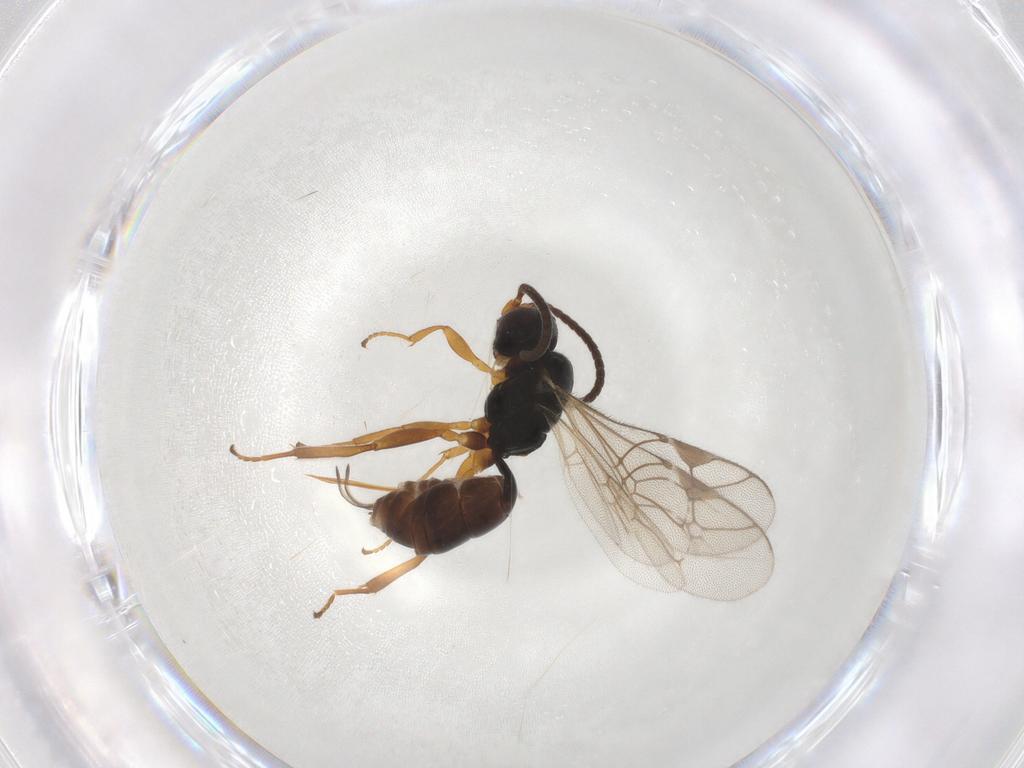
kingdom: Animalia
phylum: Arthropoda
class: Insecta
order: Hymenoptera
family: Ichneumonidae
